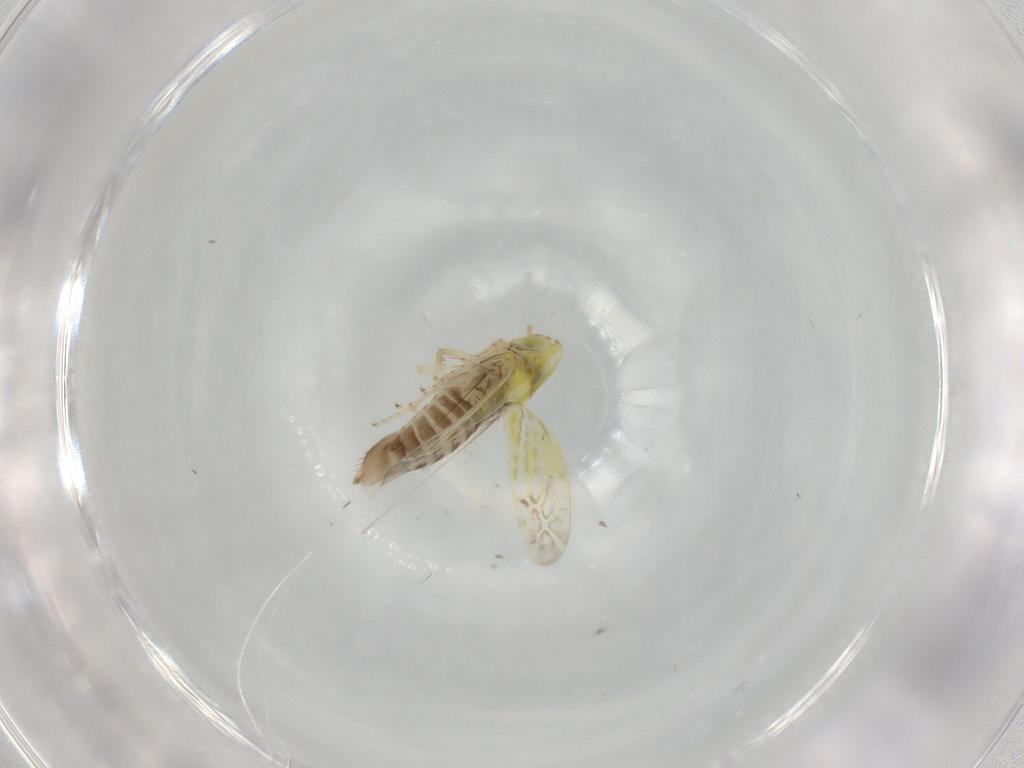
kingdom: Animalia
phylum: Arthropoda
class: Insecta
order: Hemiptera
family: Cicadellidae
